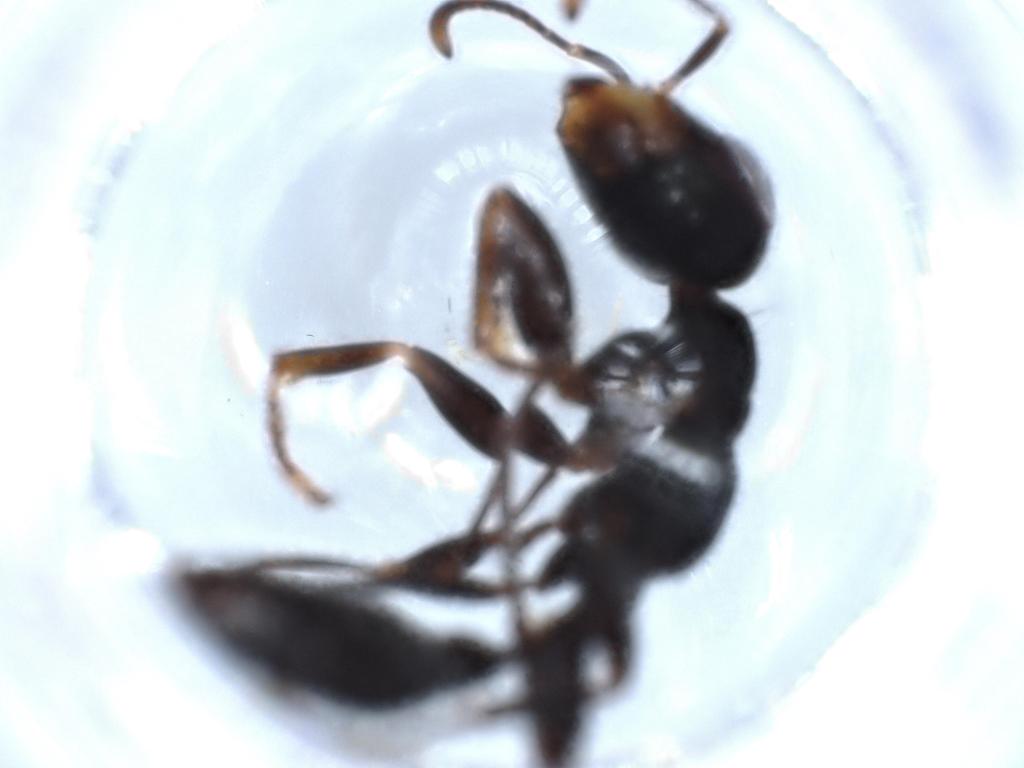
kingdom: Animalia
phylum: Arthropoda
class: Insecta
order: Hymenoptera
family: Formicidae
